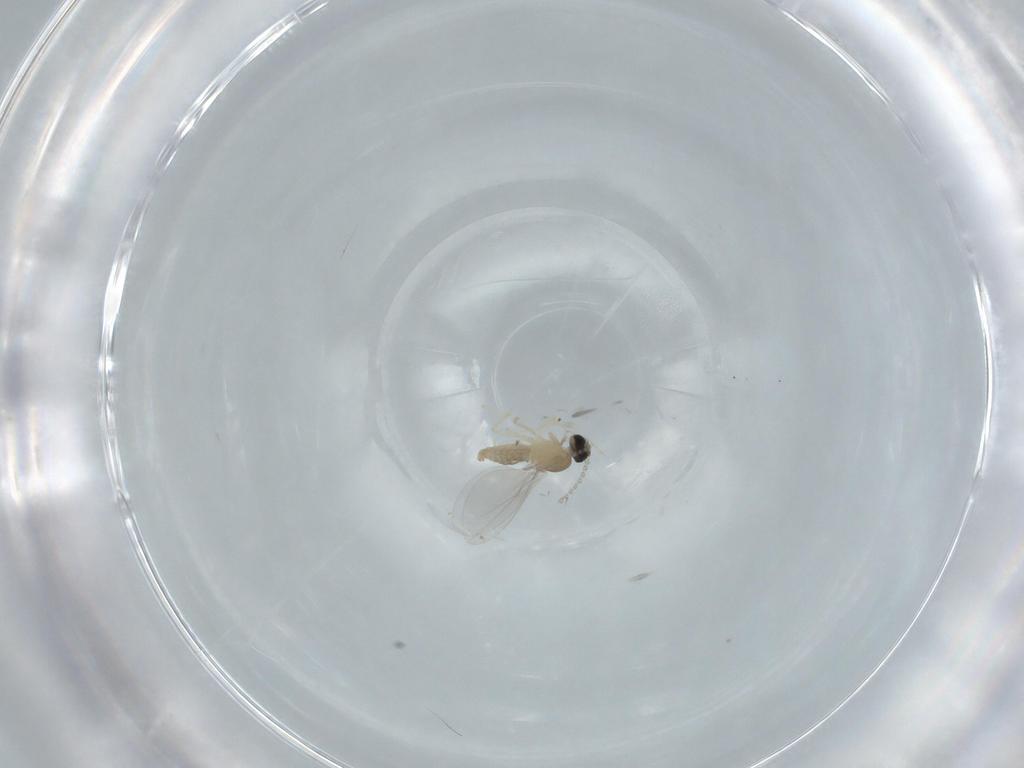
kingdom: Animalia
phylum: Arthropoda
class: Insecta
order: Diptera
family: Cecidomyiidae
